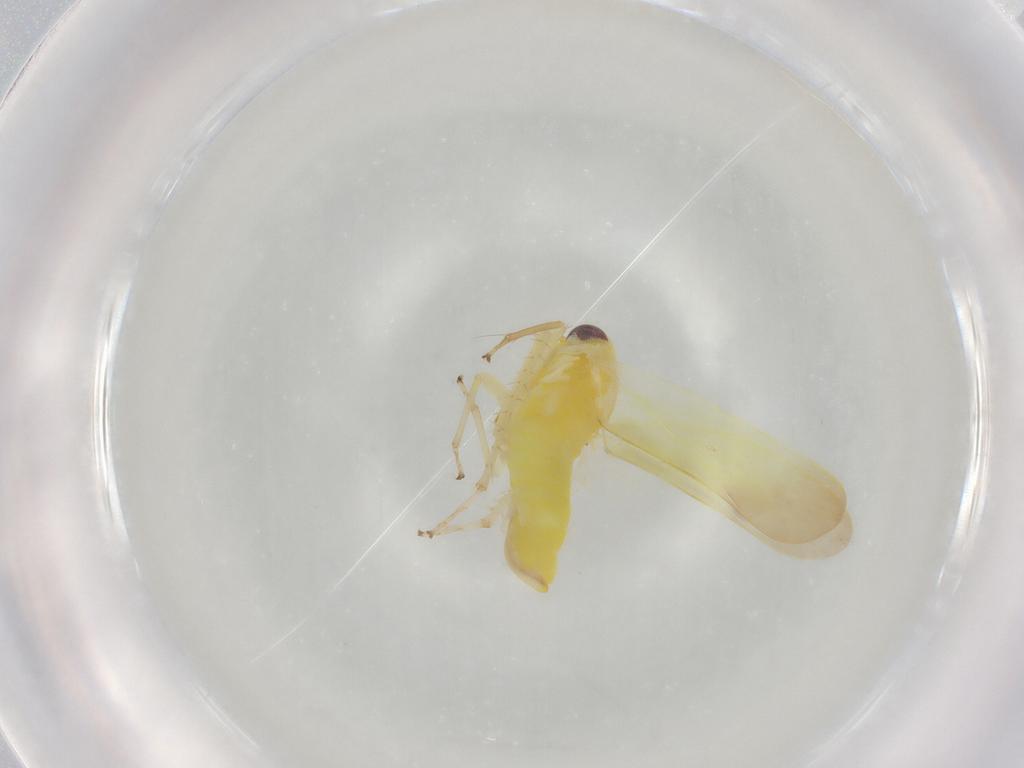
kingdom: Animalia
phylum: Arthropoda
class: Insecta
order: Hemiptera
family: Cicadellidae
